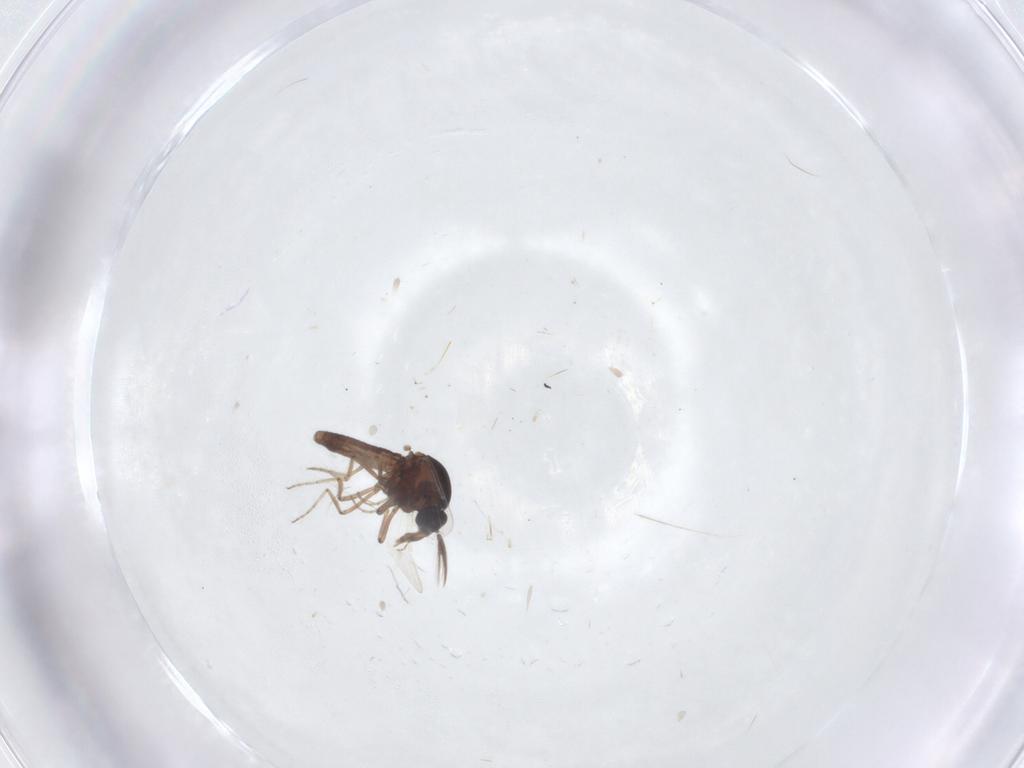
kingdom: Animalia
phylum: Arthropoda
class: Insecta
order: Diptera
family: Ceratopogonidae
